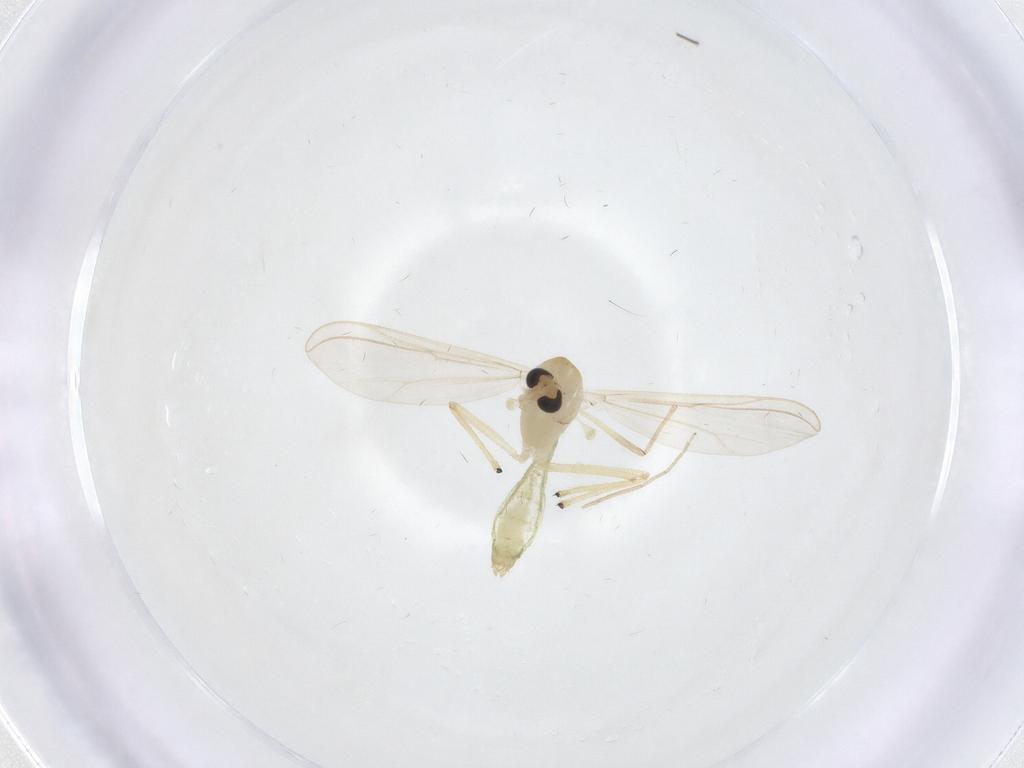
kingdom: Animalia
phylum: Arthropoda
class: Insecta
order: Diptera
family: Chironomidae
